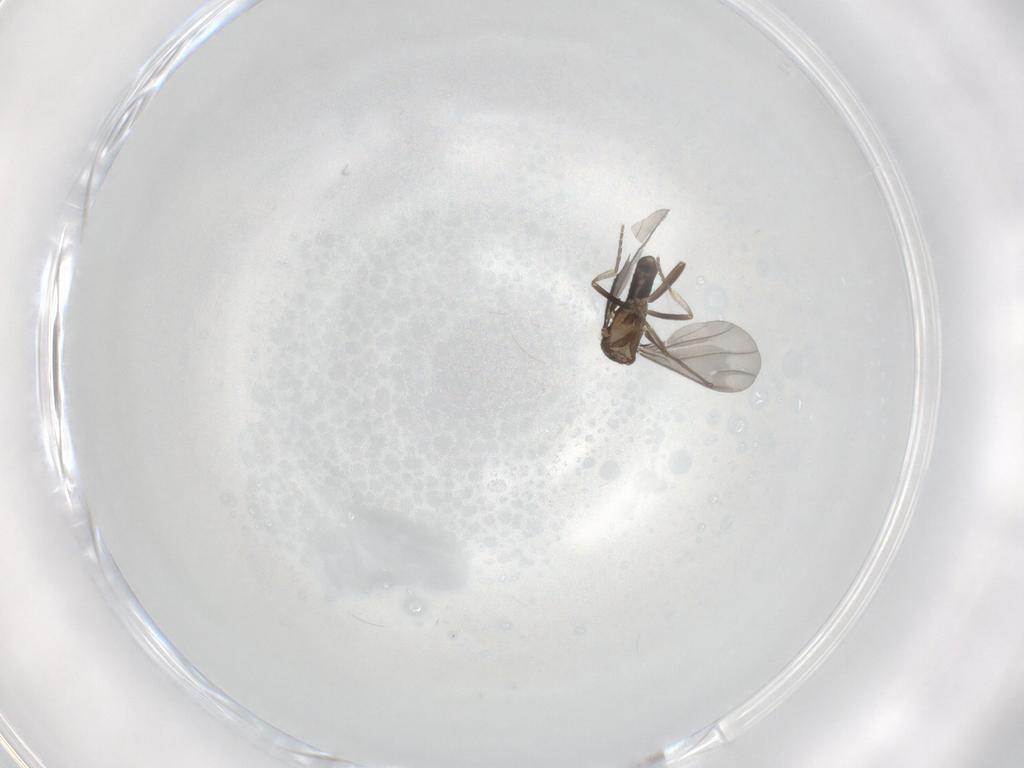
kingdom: Animalia
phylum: Arthropoda
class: Insecta
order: Diptera
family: Phoridae
